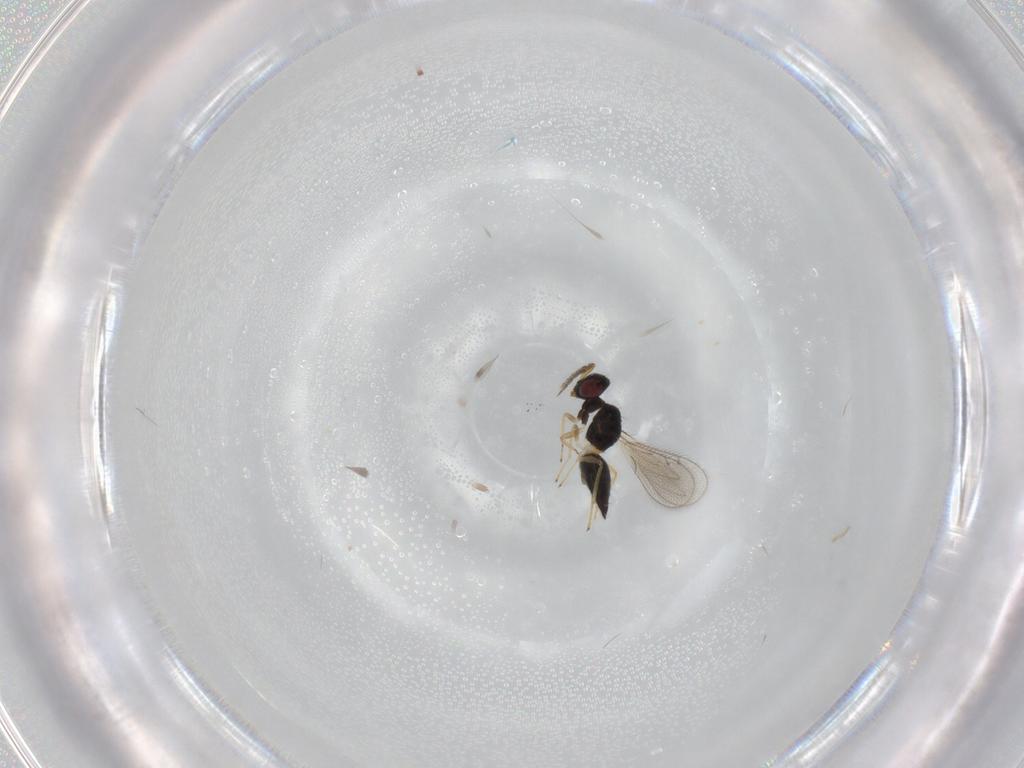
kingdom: Animalia
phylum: Arthropoda
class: Insecta
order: Hymenoptera
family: Eulophidae
